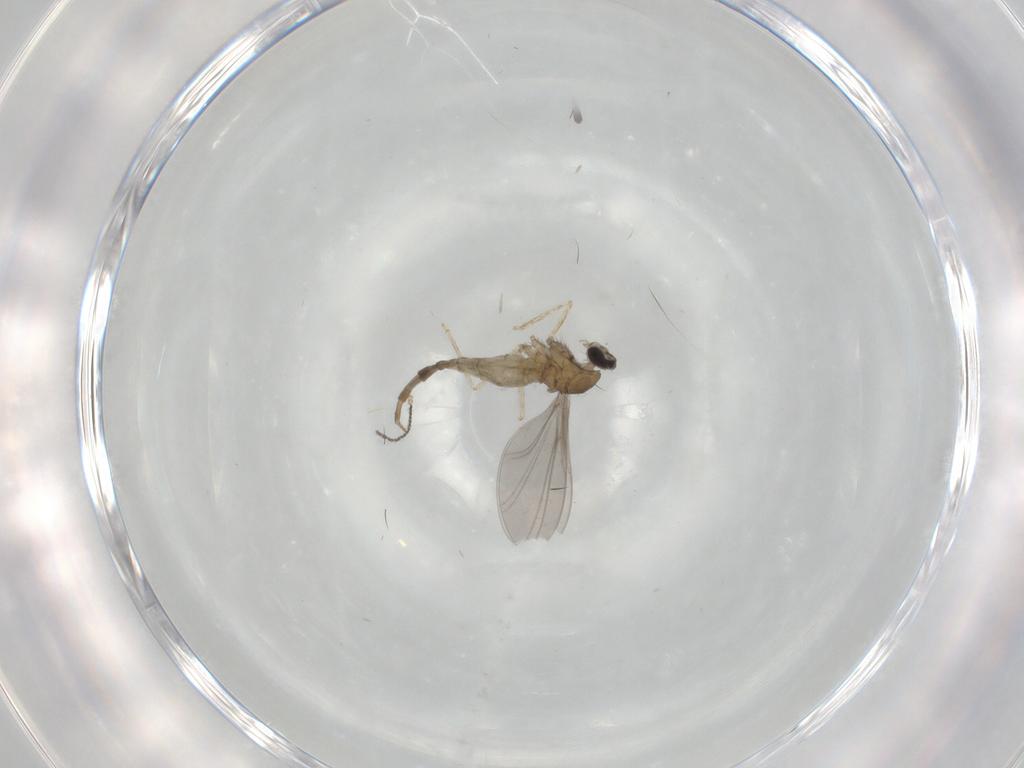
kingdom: Animalia
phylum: Arthropoda
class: Insecta
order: Diptera
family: Cecidomyiidae
